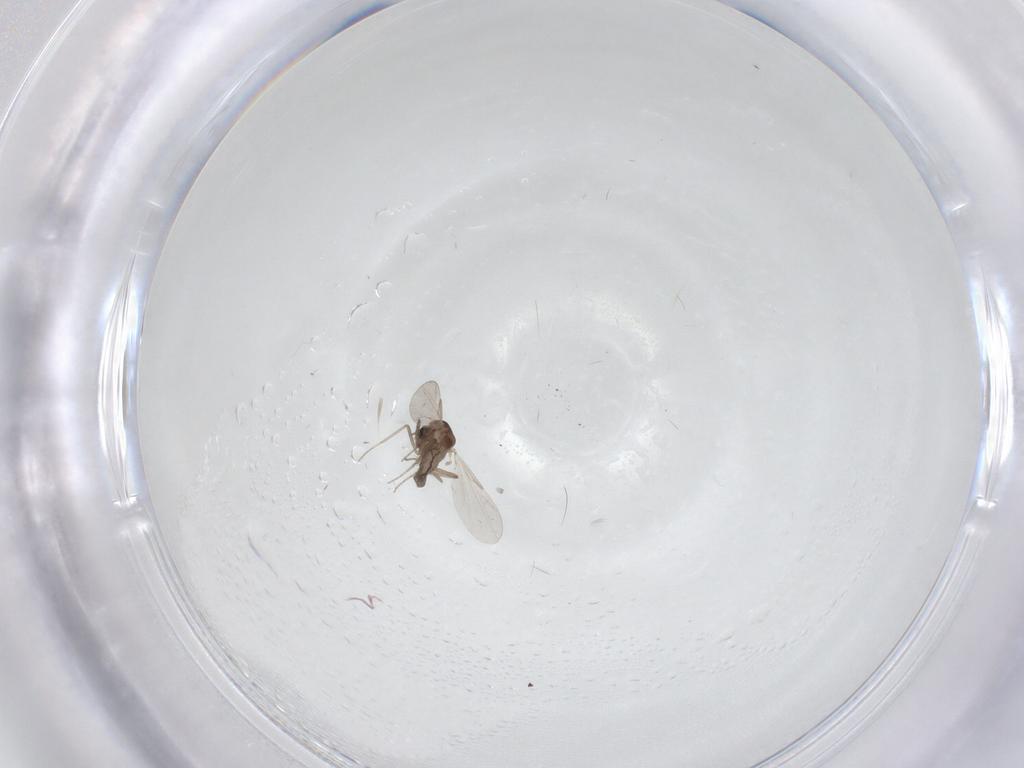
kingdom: Animalia
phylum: Arthropoda
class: Insecta
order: Diptera
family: Ceratopogonidae
